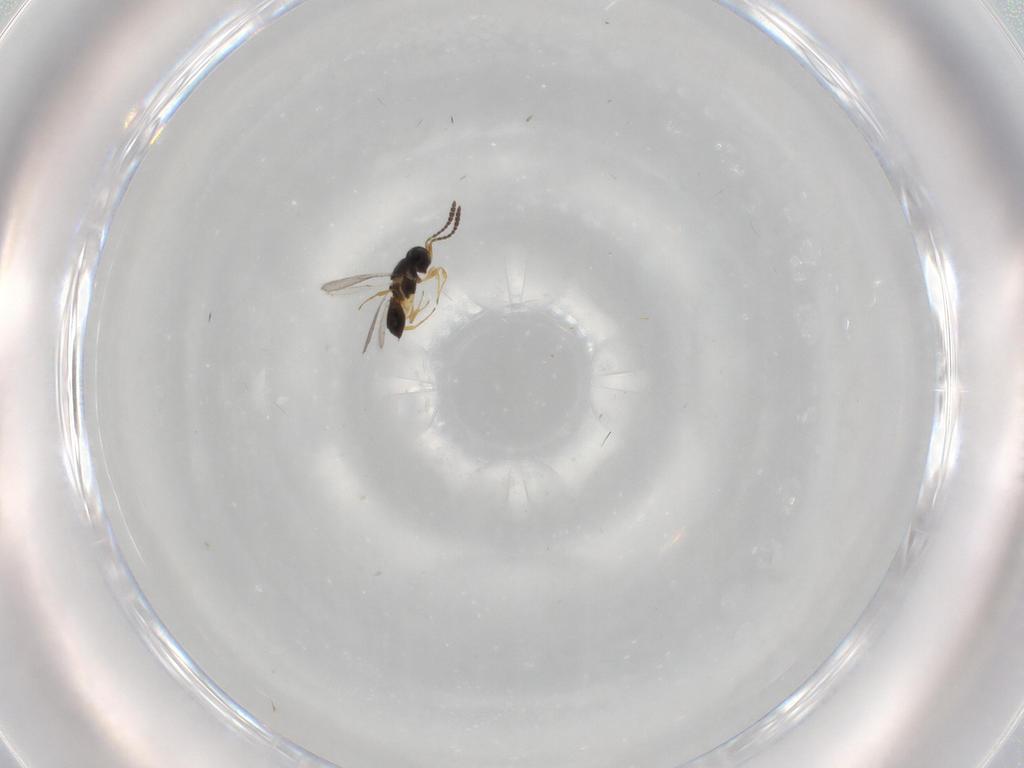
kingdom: Animalia
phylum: Arthropoda
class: Insecta
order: Hymenoptera
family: Scelionidae
